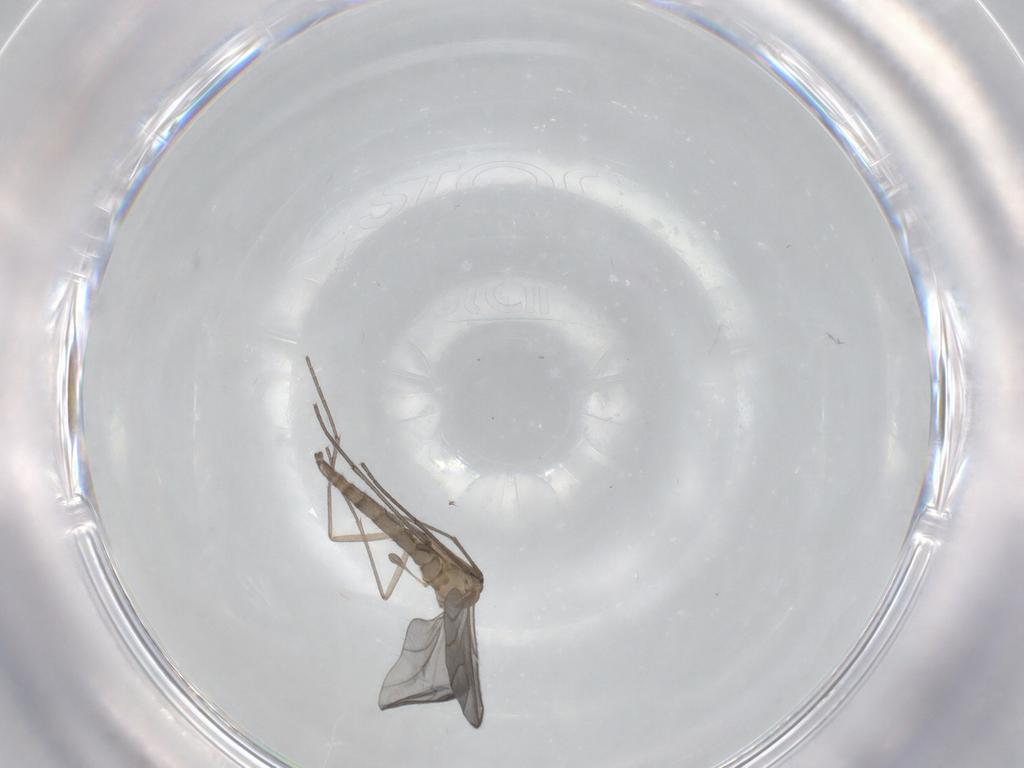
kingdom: Animalia
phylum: Arthropoda
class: Insecta
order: Diptera
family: Sciaridae
